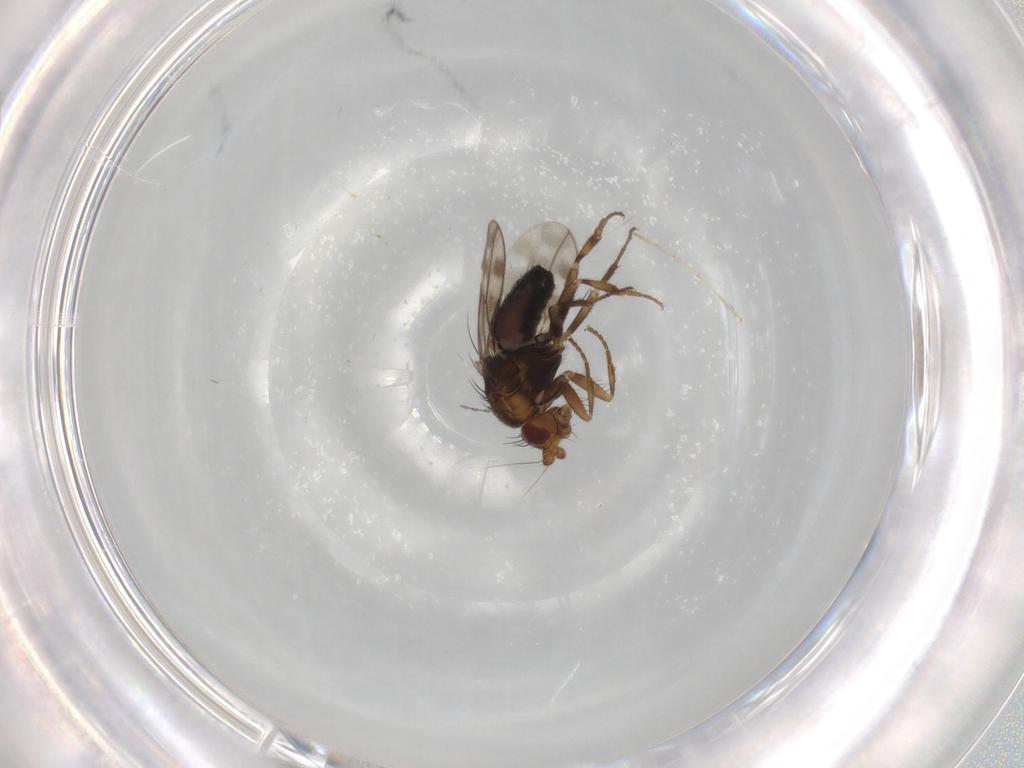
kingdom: Animalia
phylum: Arthropoda
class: Insecta
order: Diptera
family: Sphaeroceridae
